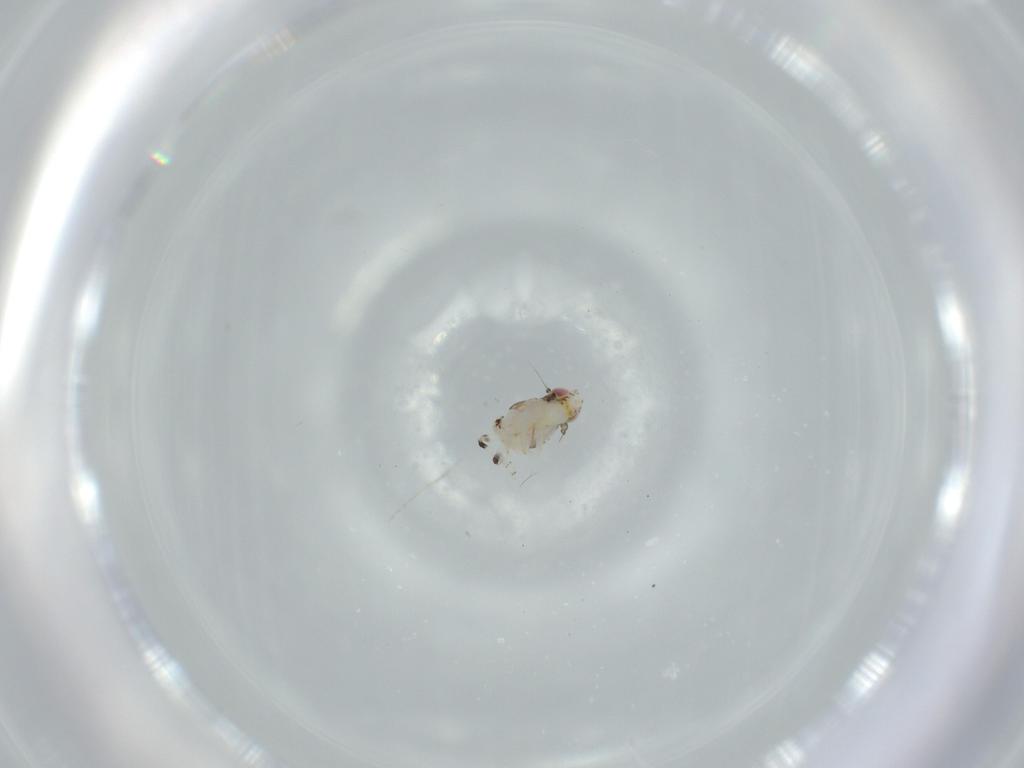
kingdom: Animalia
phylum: Arthropoda
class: Insecta
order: Hemiptera
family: Nogodinidae
